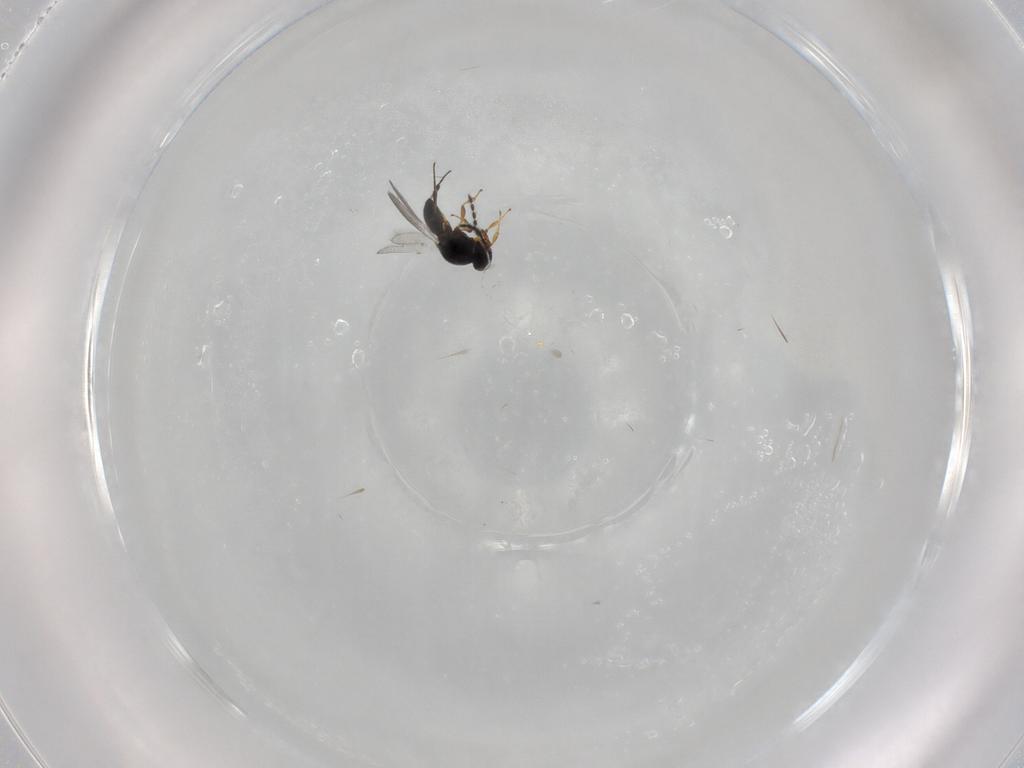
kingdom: Animalia
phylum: Arthropoda
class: Insecta
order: Hymenoptera
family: Platygastridae
